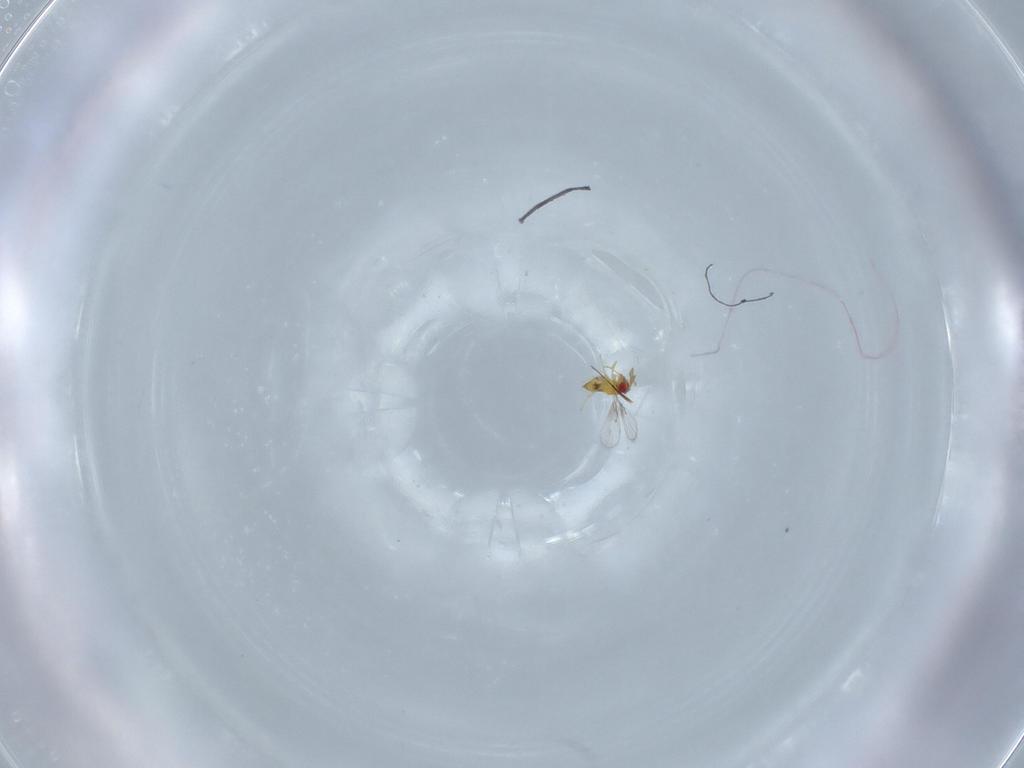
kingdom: Animalia
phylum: Arthropoda
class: Insecta
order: Hymenoptera
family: Trichogrammatidae
